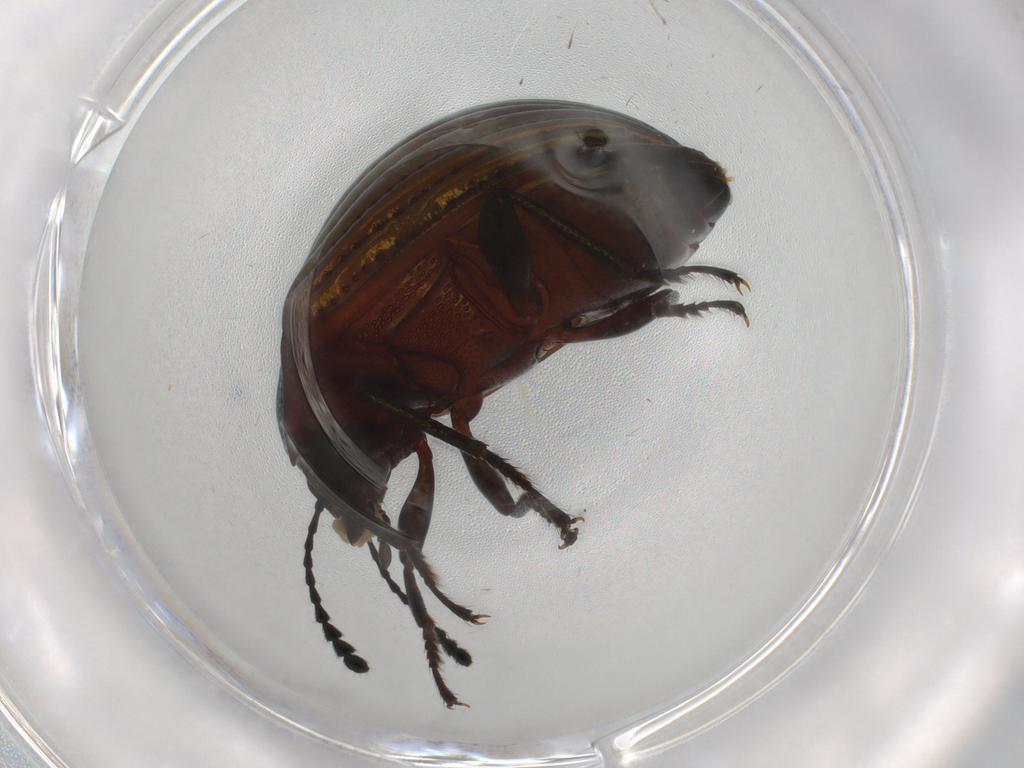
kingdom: Animalia
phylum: Arthropoda
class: Insecta
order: Coleoptera
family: Tenebrionidae
